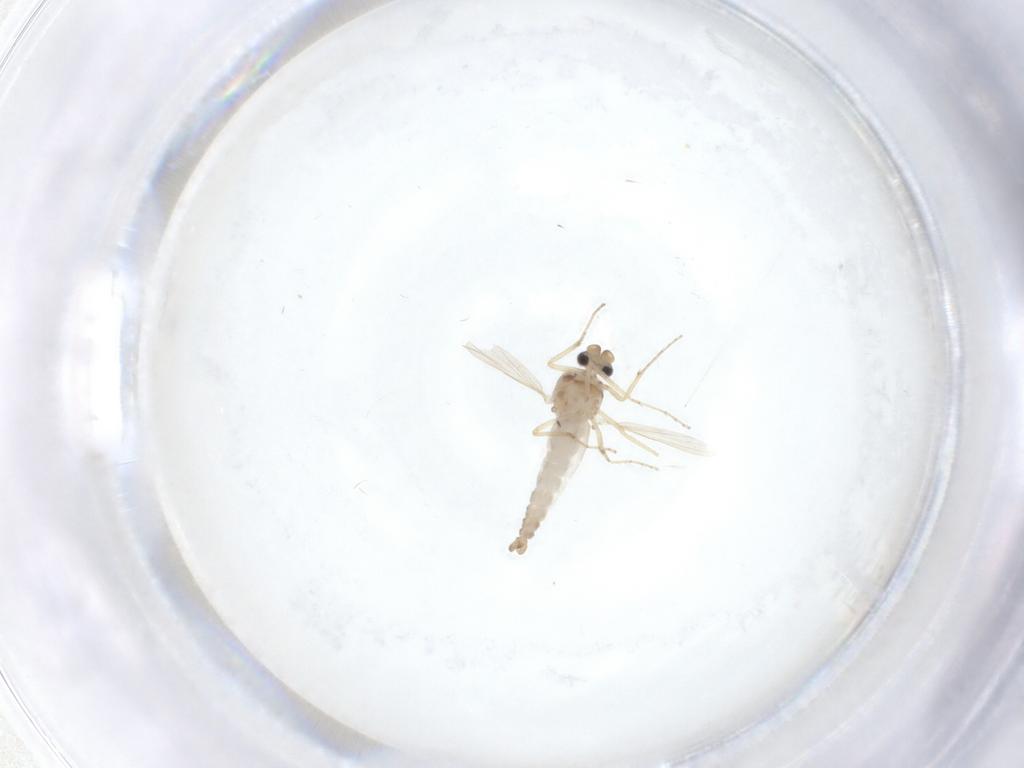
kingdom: Animalia
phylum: Arthropoda
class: Insecta
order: Diptera
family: Ceratopogonidae
